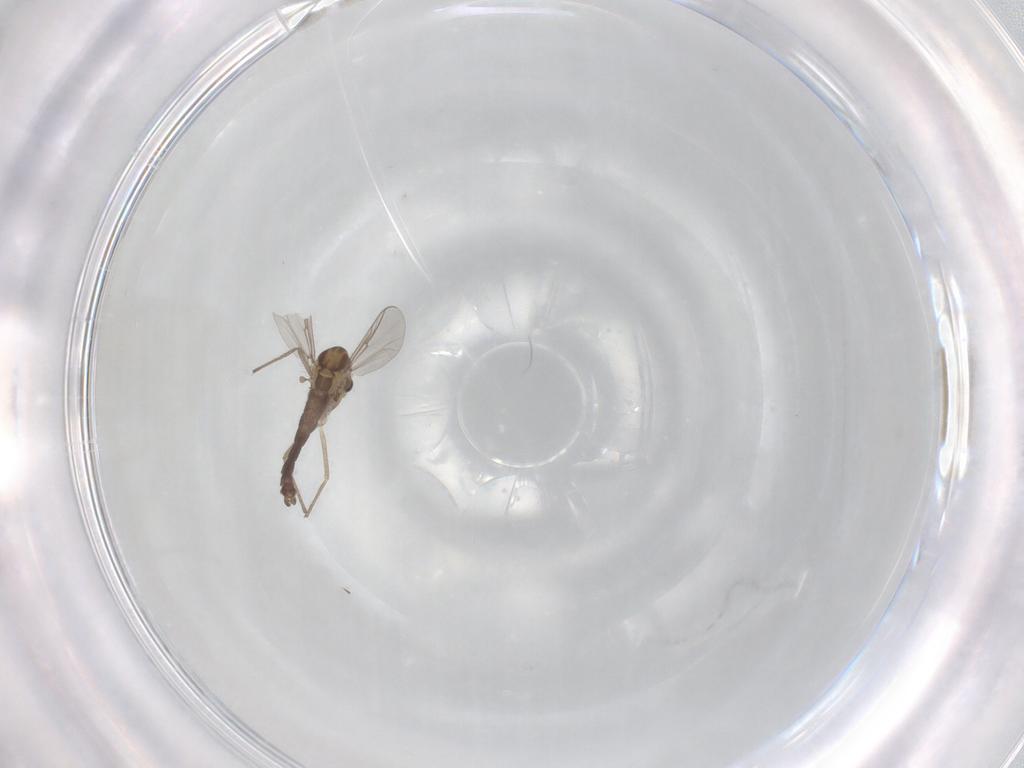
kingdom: Animalia
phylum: Arthropoda
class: Insecta
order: Diptera
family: Chironomidae
